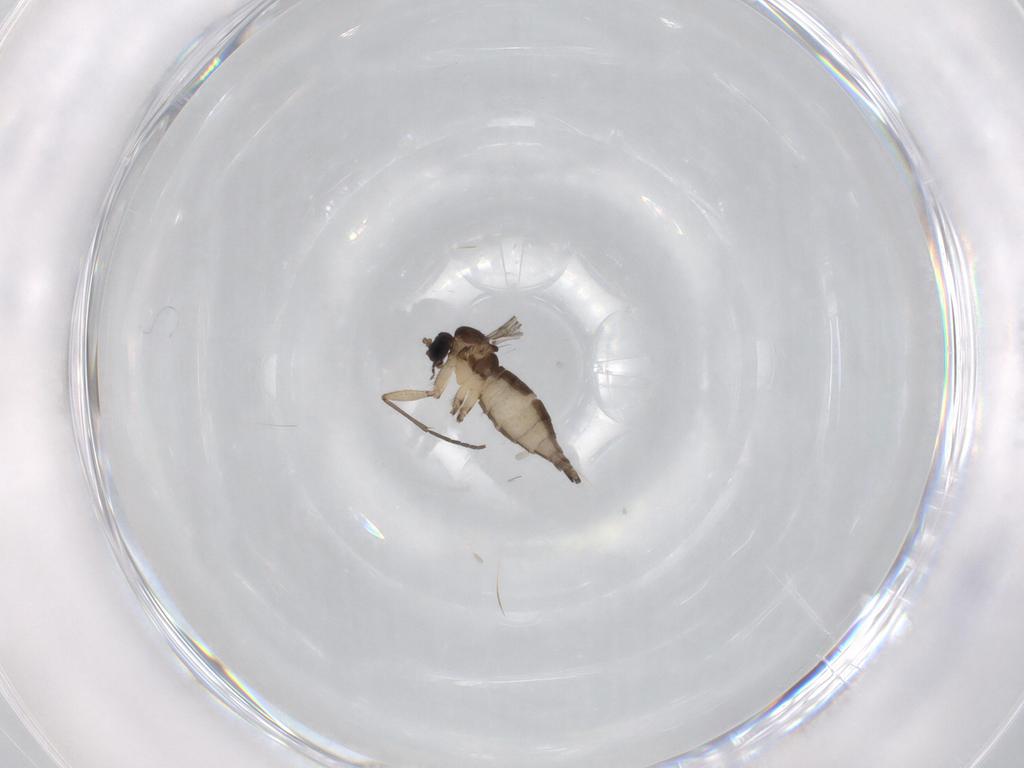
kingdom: Animalia
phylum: Arthropoda
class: Insecta
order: Diptera
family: Sciaridae
